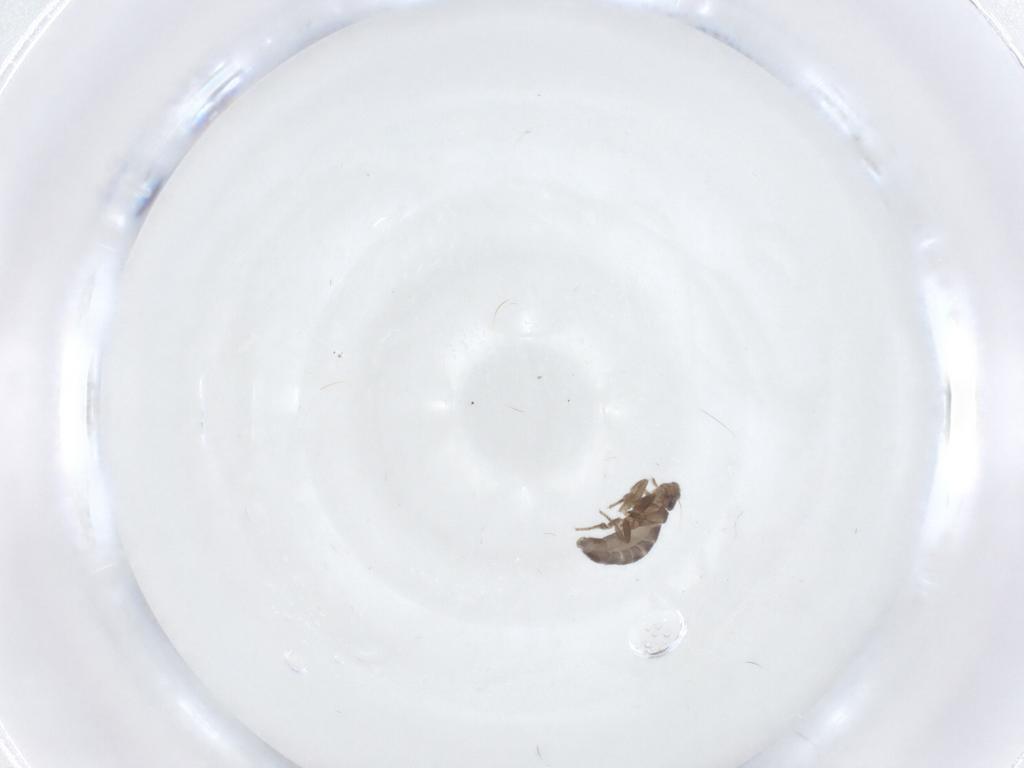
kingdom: Animalia
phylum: Arthropoda
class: Insecta
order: Diptera
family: Phoridae
